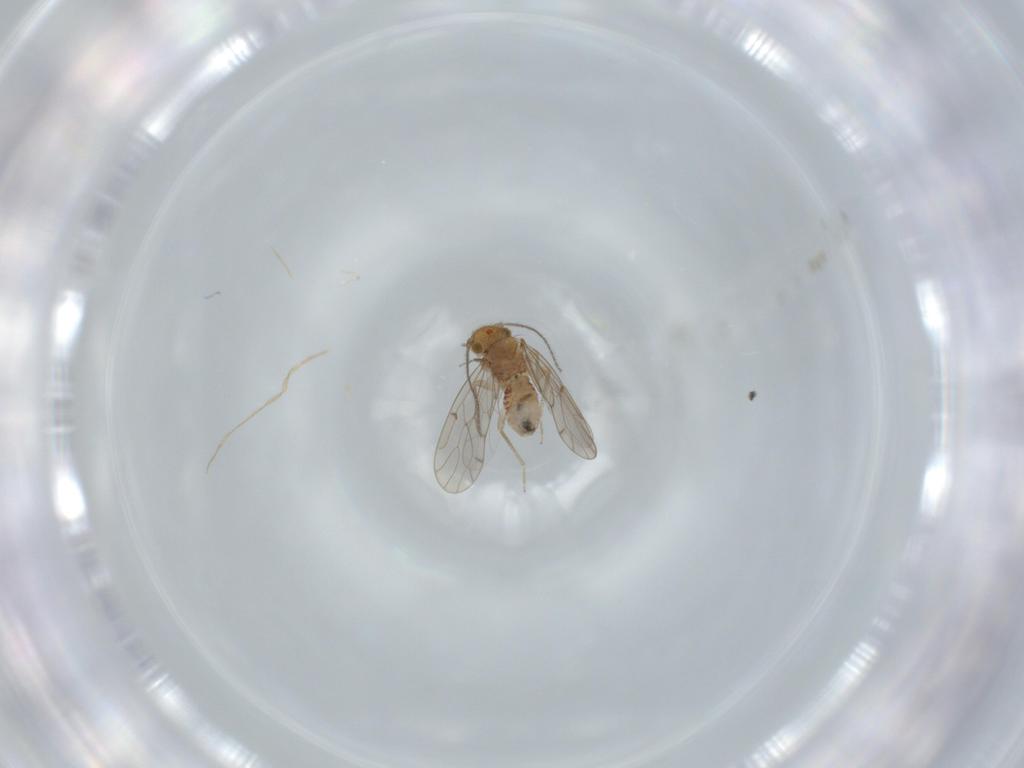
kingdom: Animalia
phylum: Arthropoda
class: Insecta
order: Psocodea
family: Ectopsocidae
